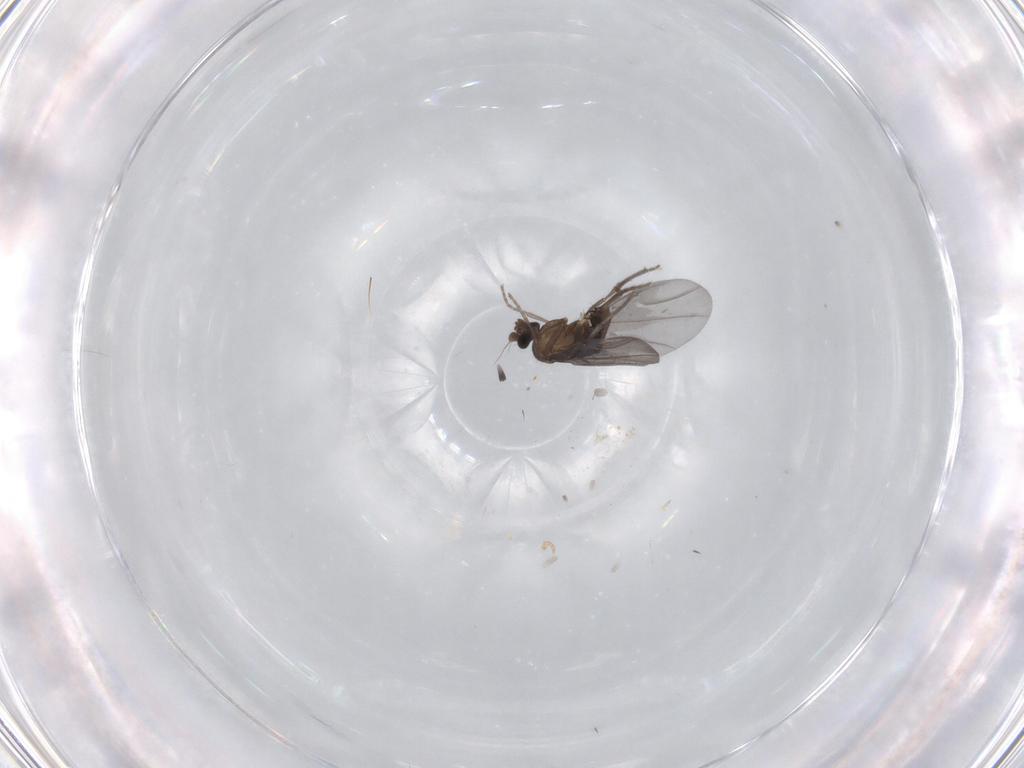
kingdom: Animalia
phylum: Arthropoda
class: Insecta
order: Diptera
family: Phoridae
